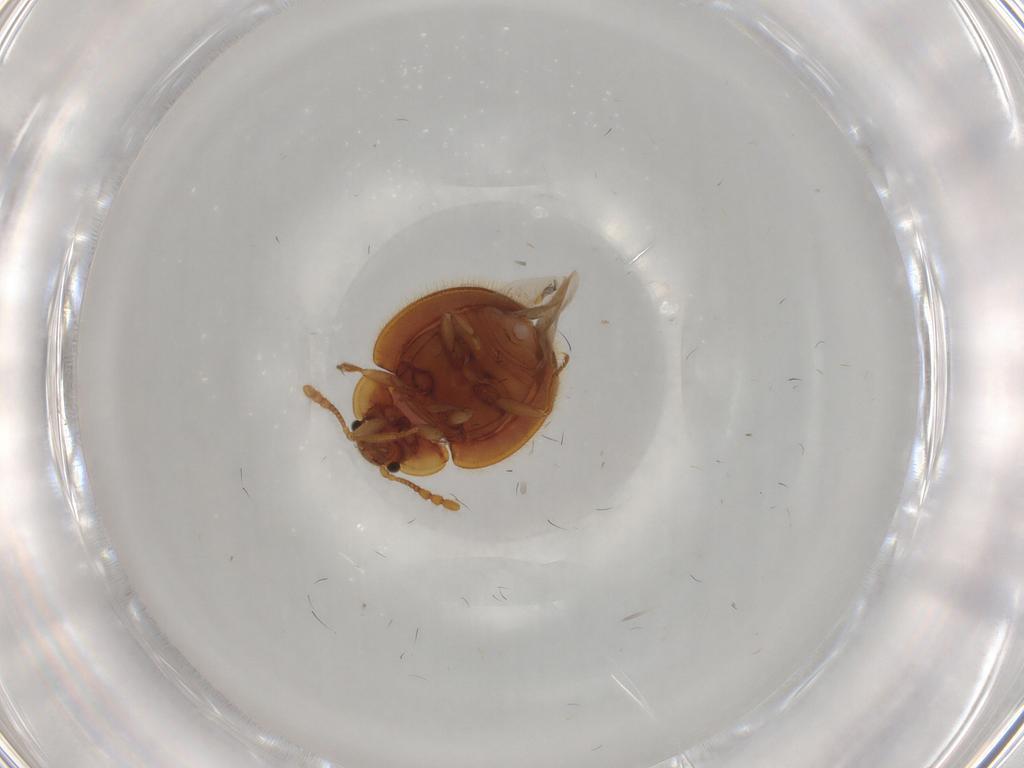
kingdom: Animalia
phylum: Arthropoda
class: Insecta
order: Coleoptera
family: Anamorphidae
